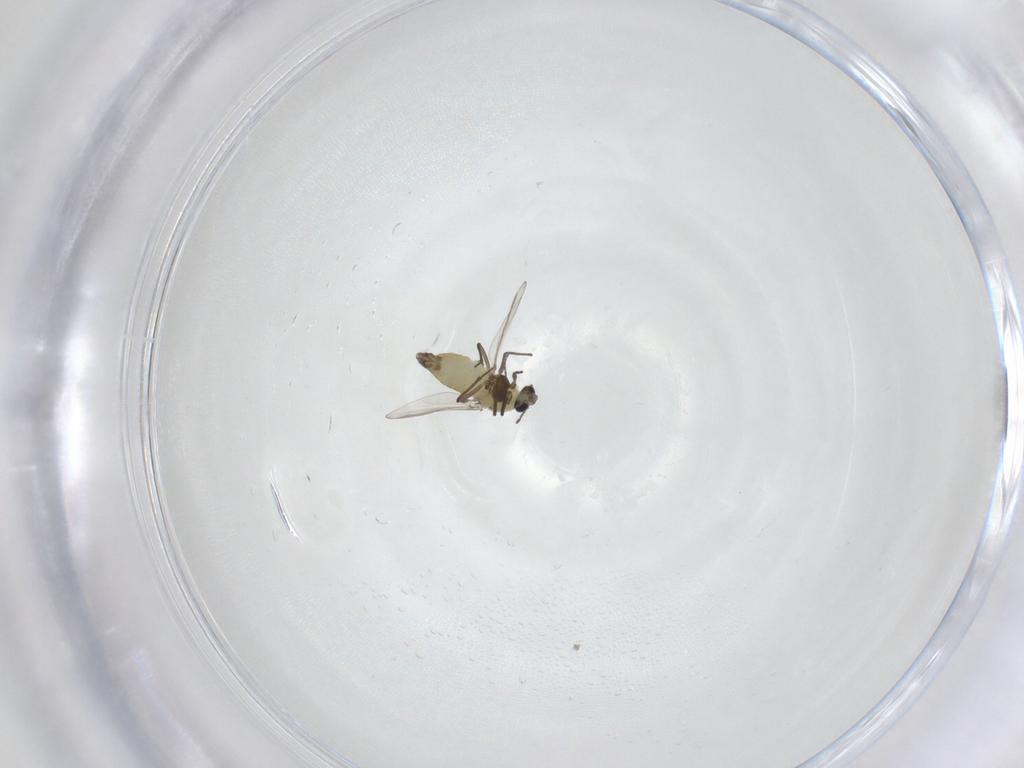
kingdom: Animalia
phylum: Arthropoda
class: Insecta
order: Diptera
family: Chironomidae
